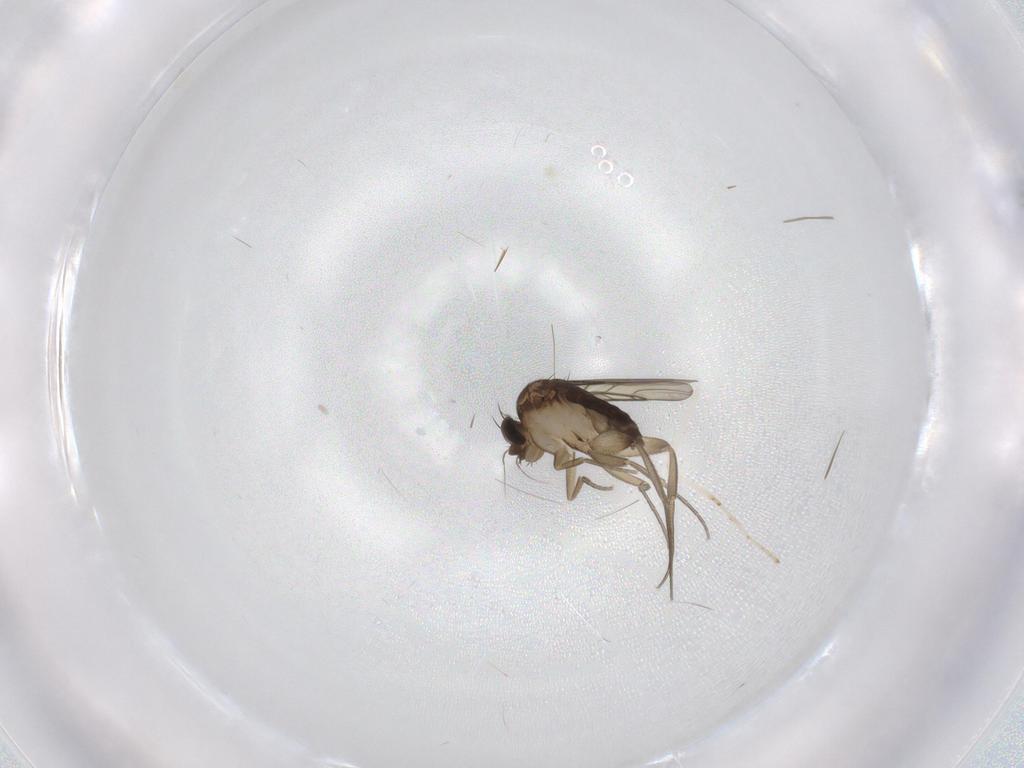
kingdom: Animalia
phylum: Arthropoda
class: Insecta
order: Diptera
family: Phoridae
